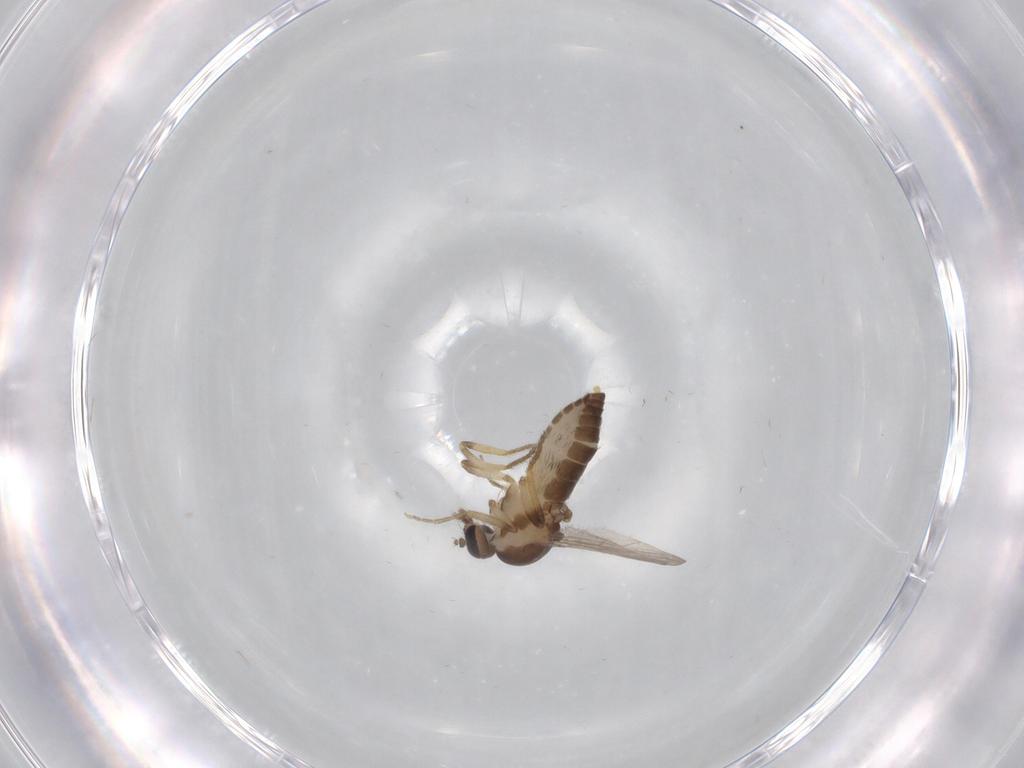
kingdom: Animalia
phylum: Arthropoda
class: Insecta
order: Diptera
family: Ceratopogonidae
